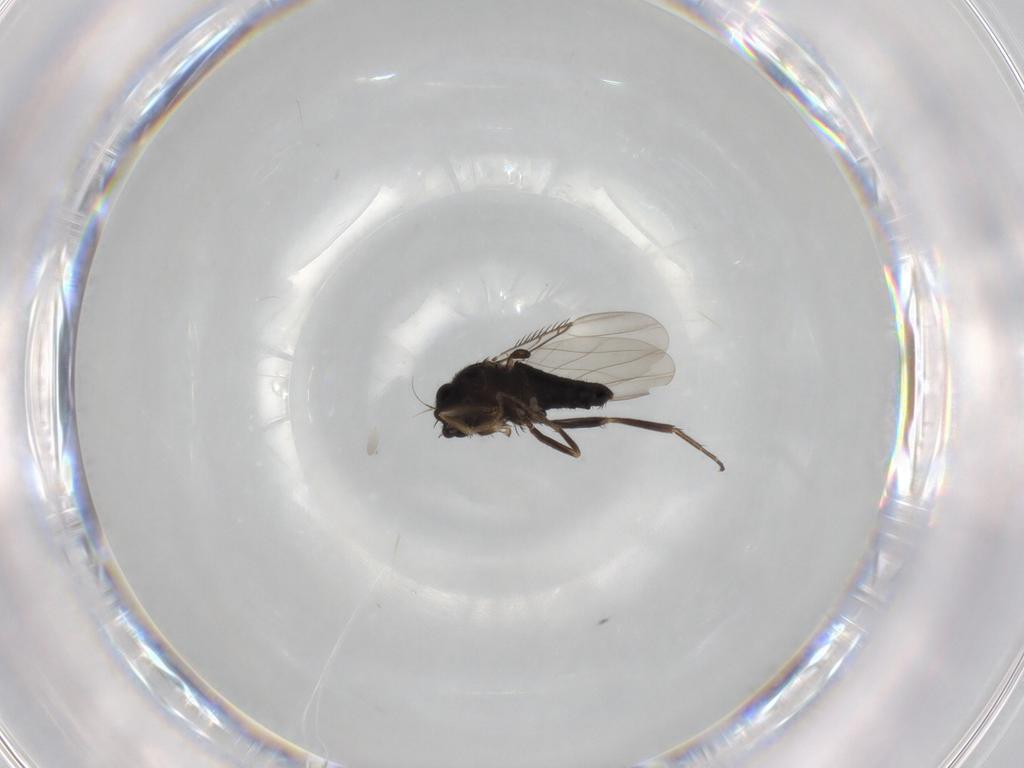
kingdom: Animalia
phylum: Arthropoda
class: Insecta
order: Diptera
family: Phoridae
